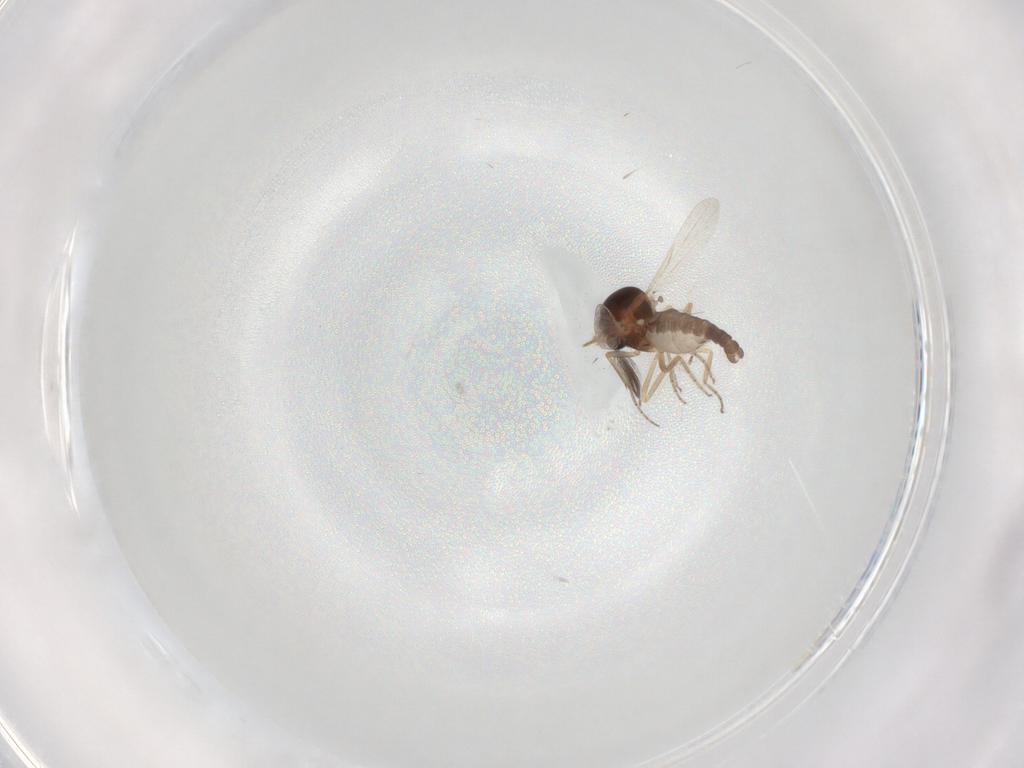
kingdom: Animalia
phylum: Arthropoda
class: Insecta
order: Diptera
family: Ceratopogonidae
